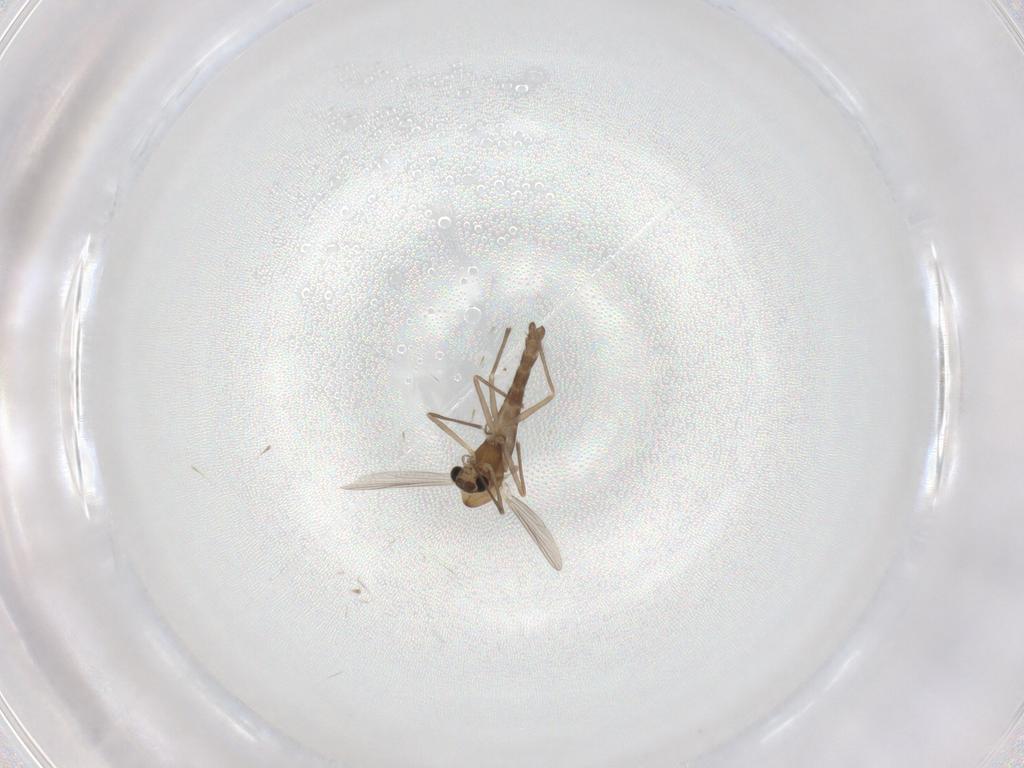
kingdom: Animalia
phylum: Arthropoda
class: Insecta
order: Diptera
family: Chironomidae
